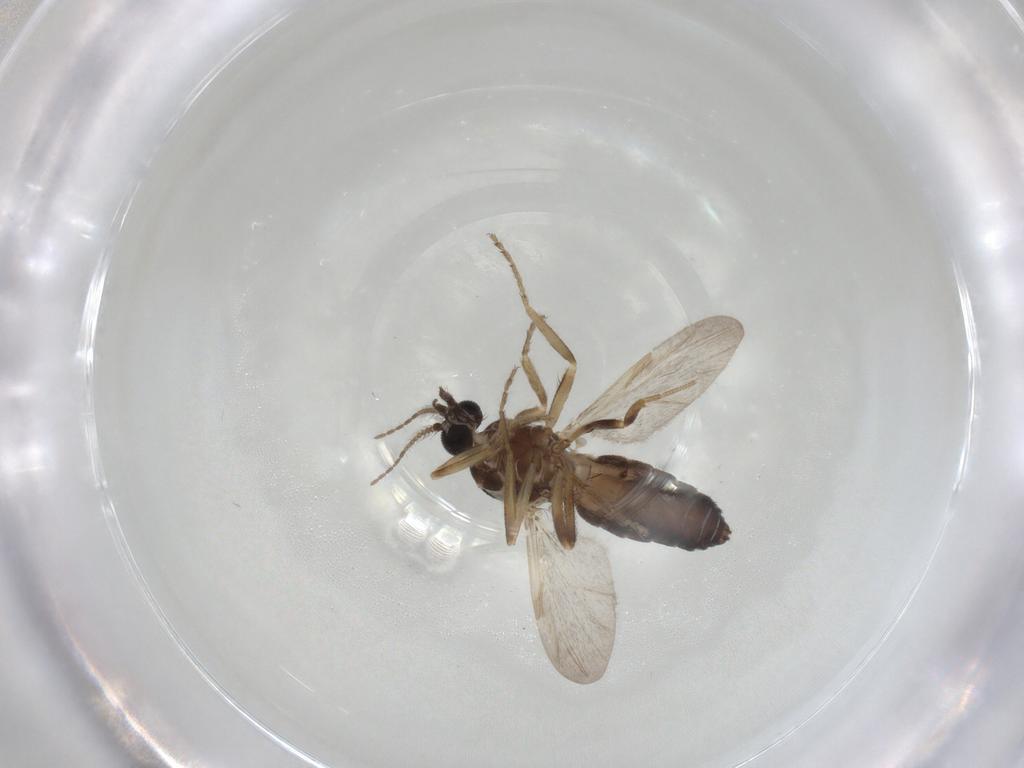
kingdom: Animalia
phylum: Arthropoda
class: Insecta
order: Diptera
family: Ceratopogonidae
